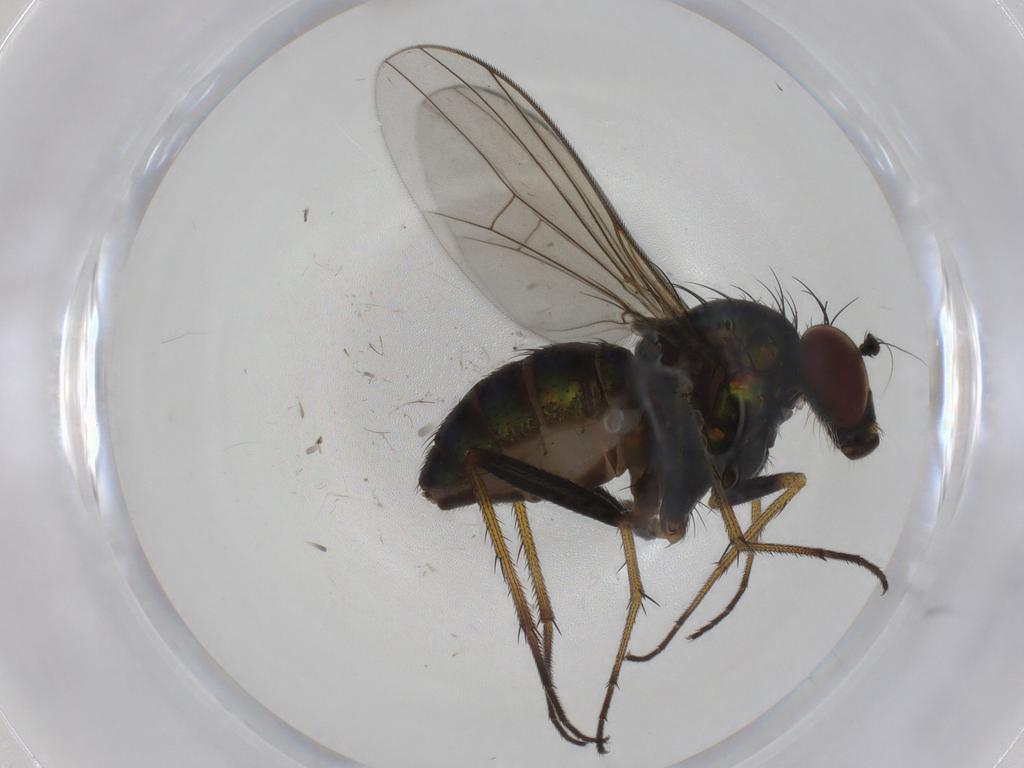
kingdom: Animalia
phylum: Arthropoda
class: Insecta
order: Diptera
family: Dolichopodidae
